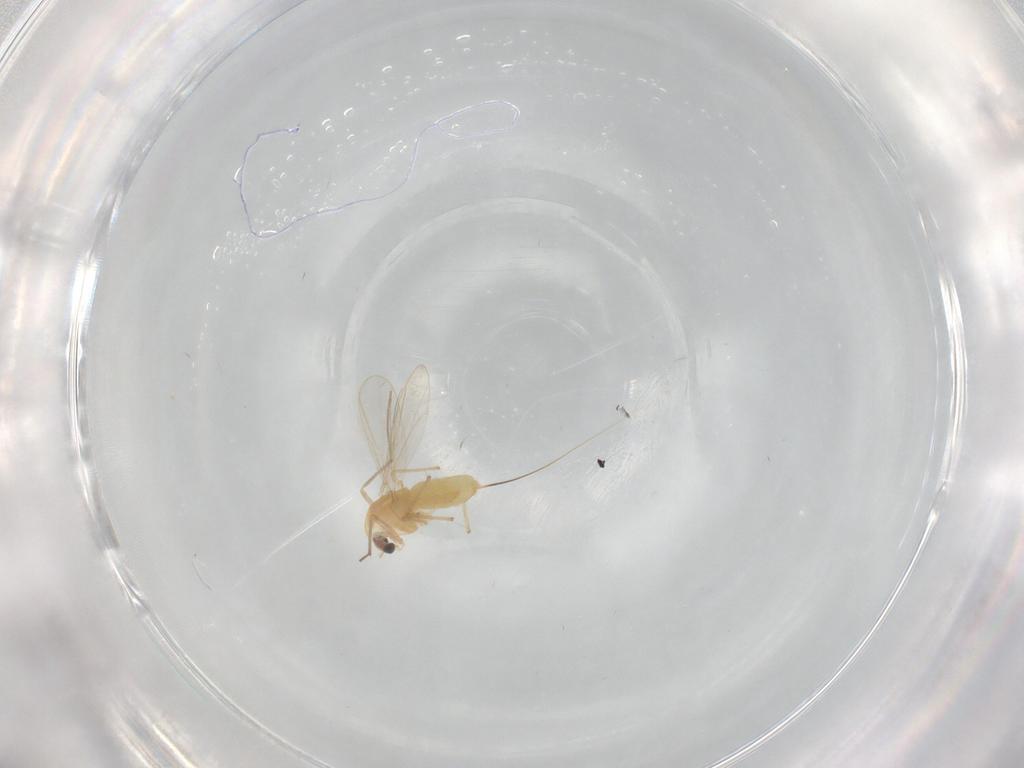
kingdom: Animalia
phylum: Arthropoda
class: Insecta
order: Diptera
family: Chironomidae
